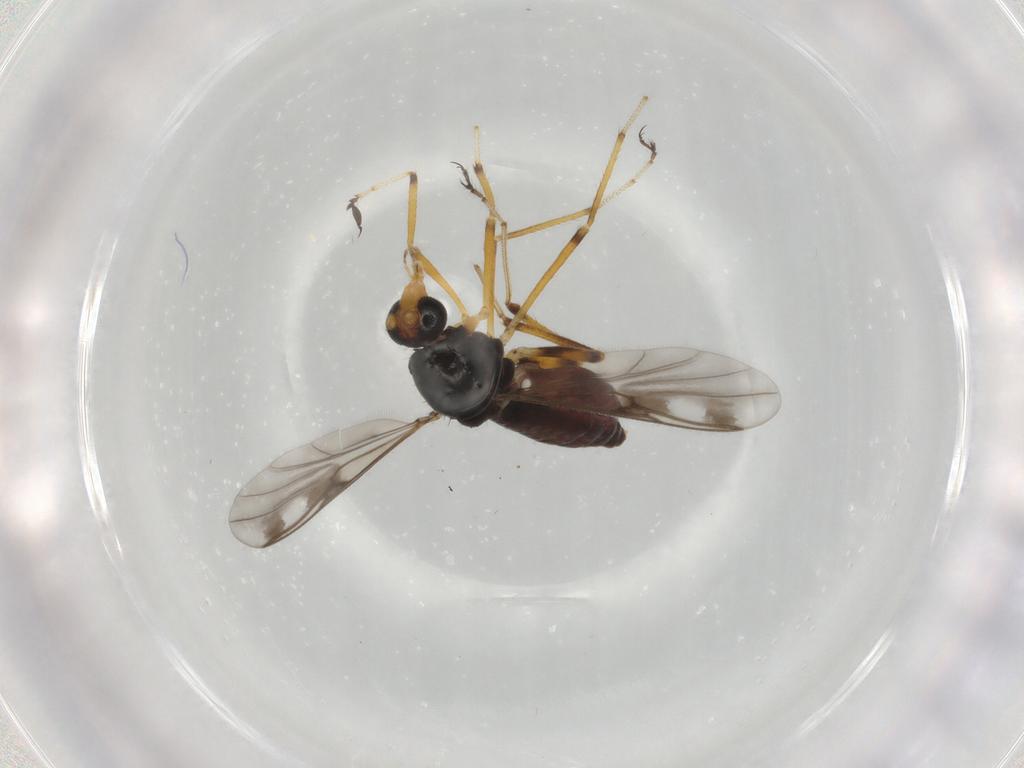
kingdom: Animalia
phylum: Arthropoda
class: Insecta
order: Diptera
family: Ceratopogonidae
